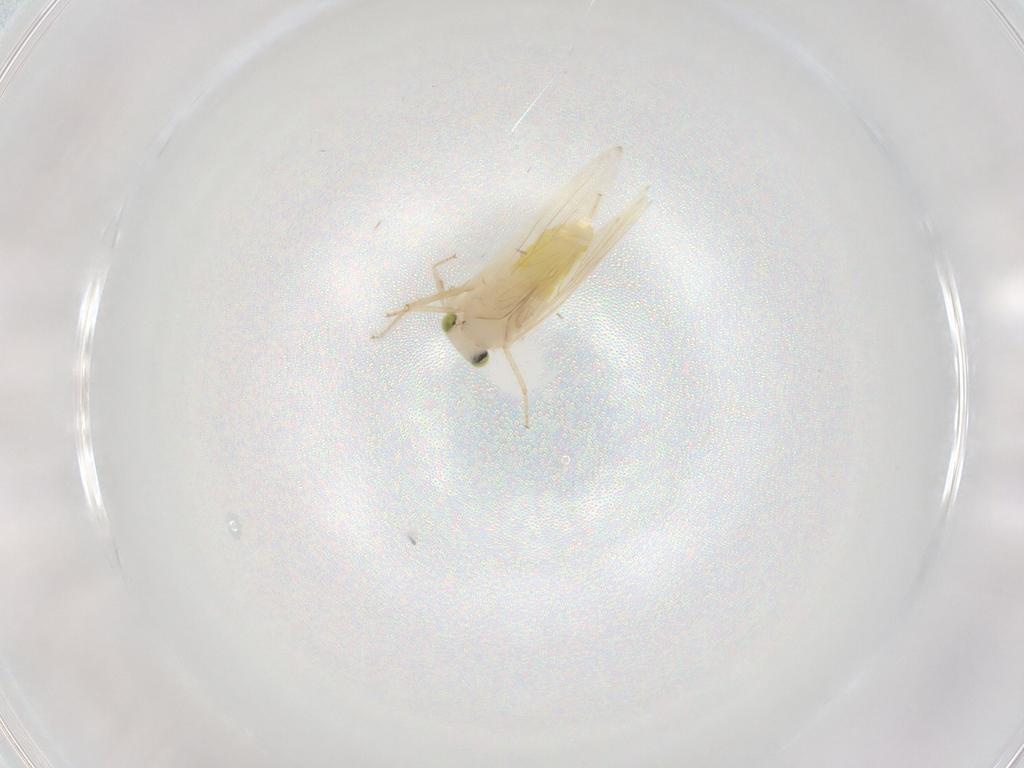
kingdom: Animalia
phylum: Arthropoda
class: Insecta
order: Psocodea
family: Lepidopsocidae
